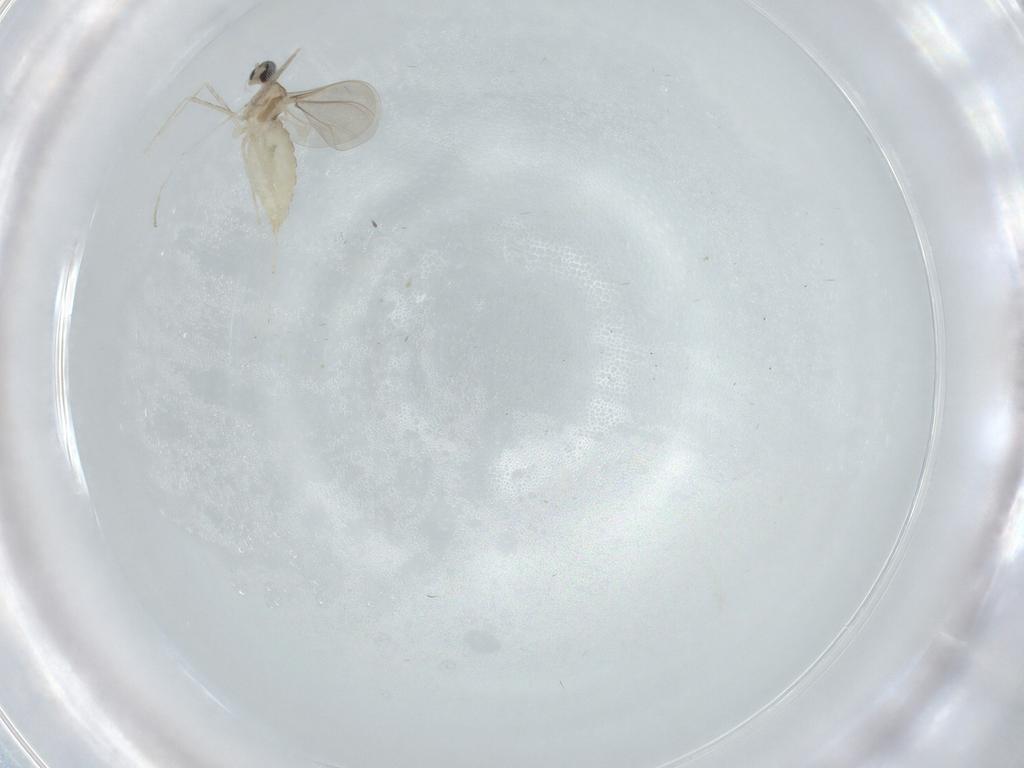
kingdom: Animalia
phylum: Arthropoda
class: Insecta
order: Diptera
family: Cecidomyiidae
